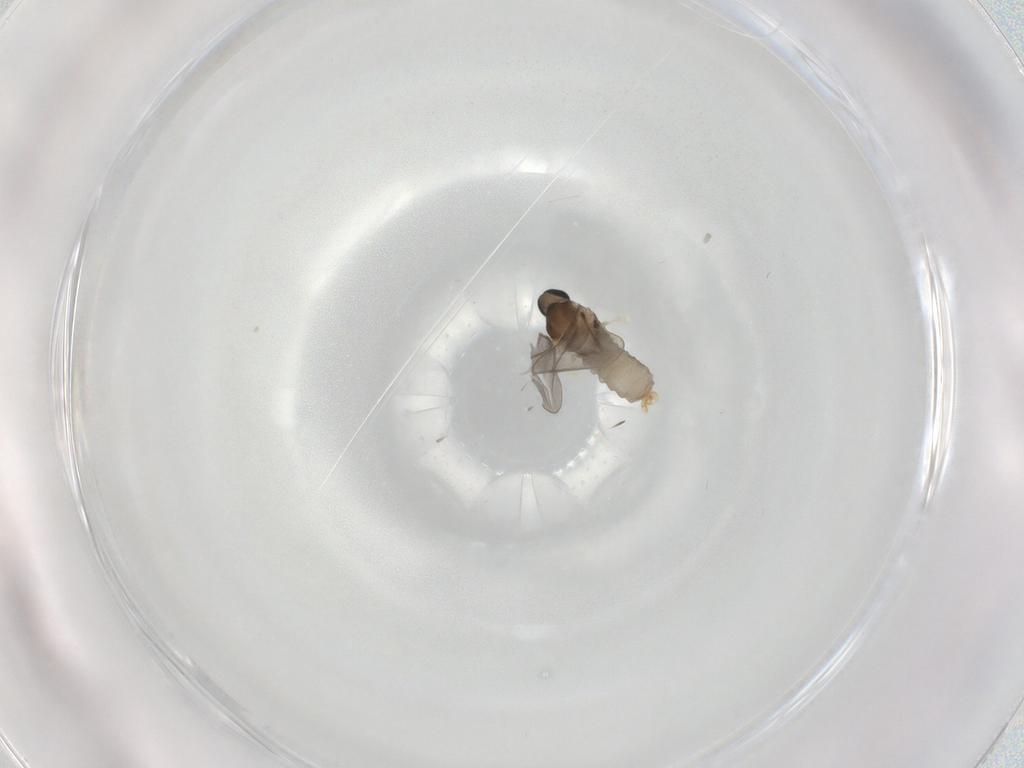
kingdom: Animalia
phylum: Arthropoda
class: Insecta
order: Diptera
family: Cecidomyiidae
